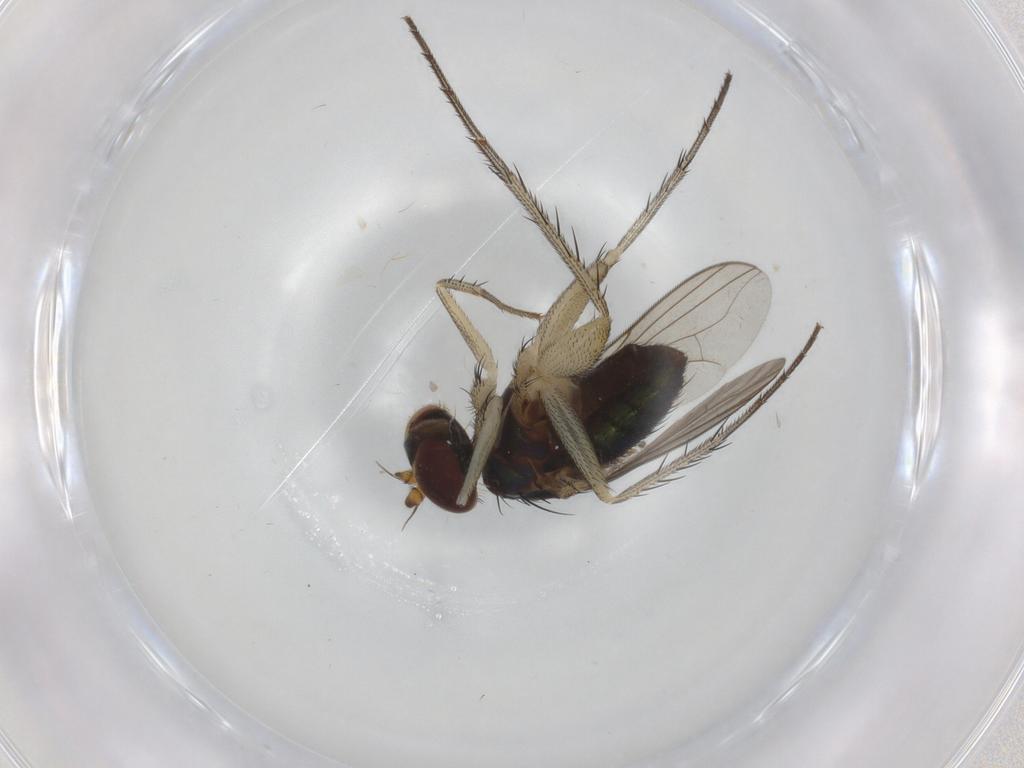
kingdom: Animalia
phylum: Arthropoda
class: Insecta
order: Diptera
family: Dolichopodidae
